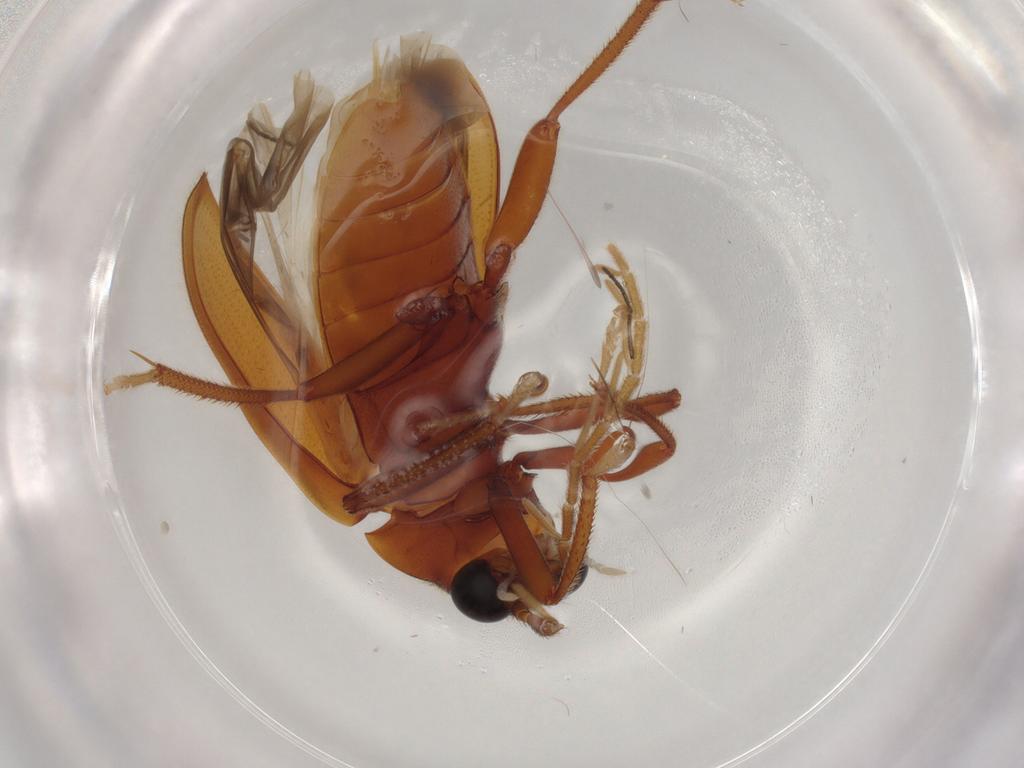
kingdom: Animalia
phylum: Arthropoda
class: Insecta
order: Coleoptera
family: Ptilodactylidae
